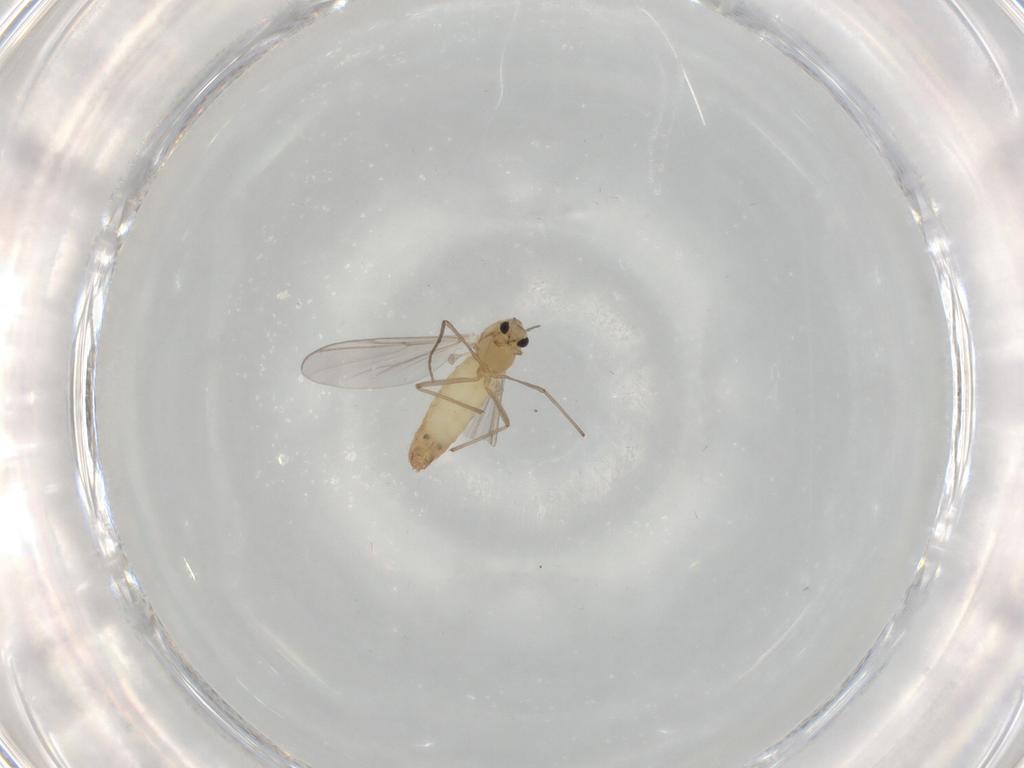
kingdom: Animalia
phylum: Arthropoda
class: Insecta
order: Diptera
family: Chironomidae
